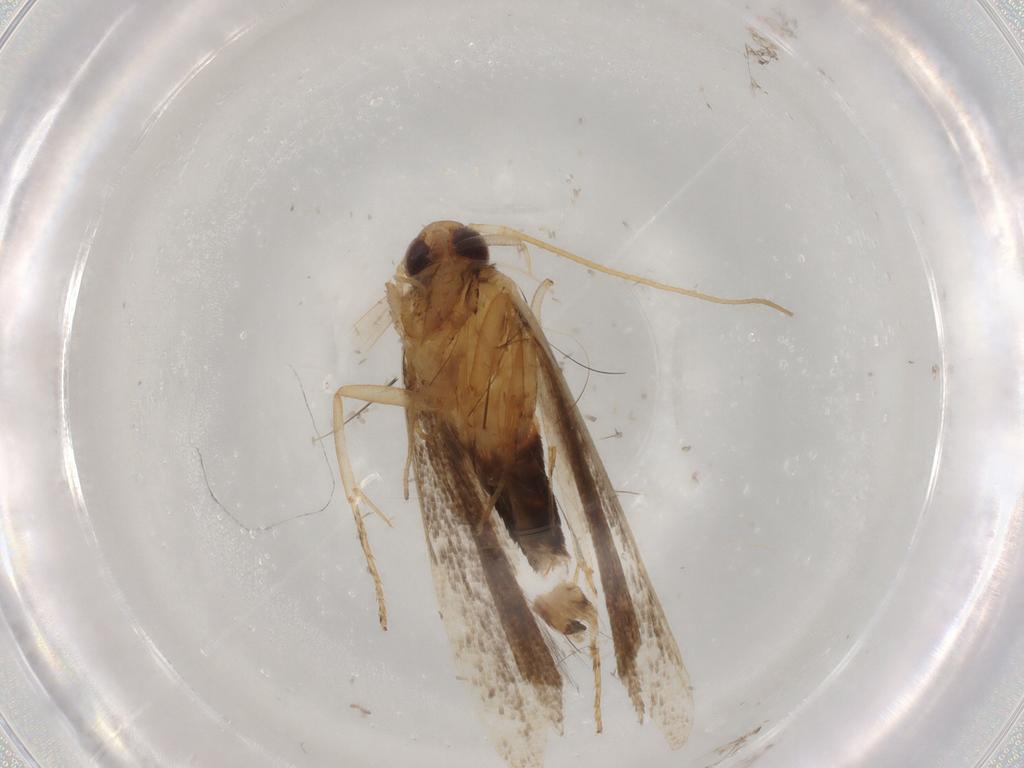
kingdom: Animalia
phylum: Arthropoda
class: Insecta
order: Lepidoptera
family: Gelechiidae
